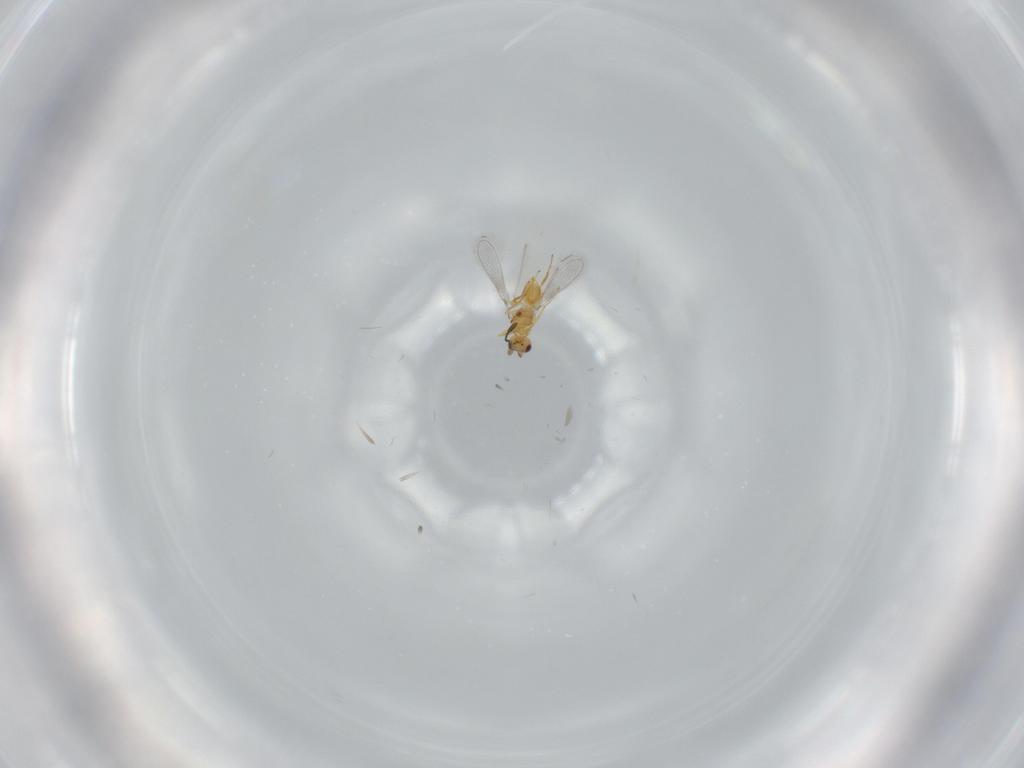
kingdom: Animalia
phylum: Arthropoda
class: Insecta
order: Hymenoptera
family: Mymaridae
